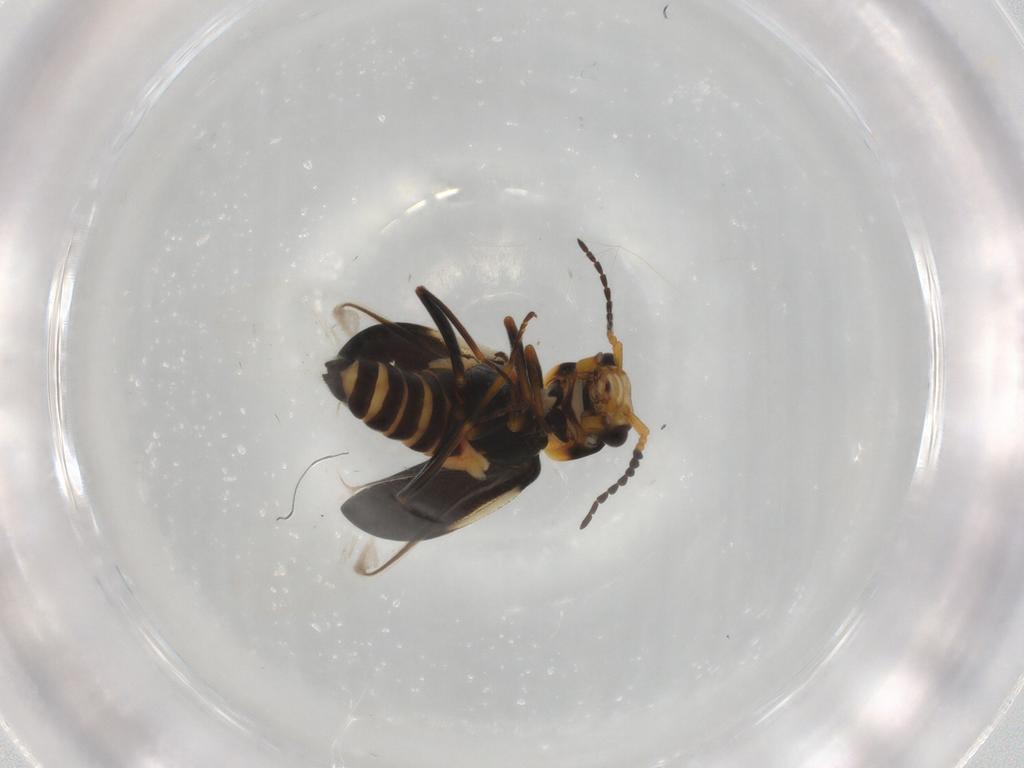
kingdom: Animalia
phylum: Arthropoda
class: Insecta
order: Coleoptera
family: Melyridae
